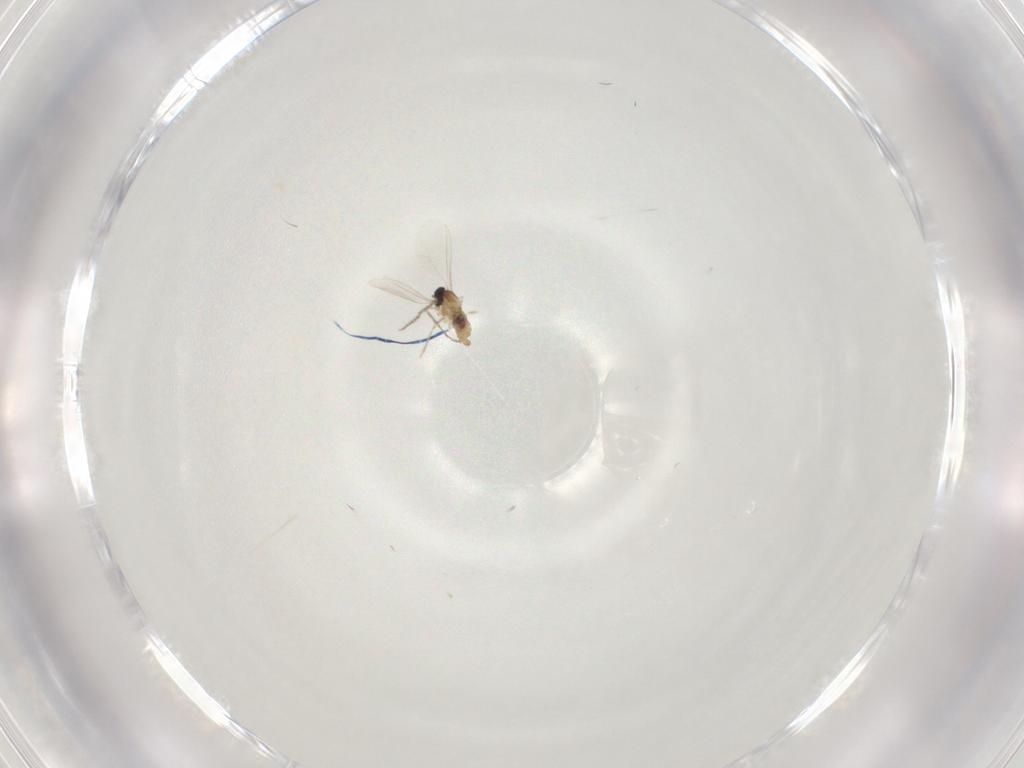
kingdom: Animalia
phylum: Arthropoda
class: Insecta
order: Diptera
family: Cecidomyiidae
